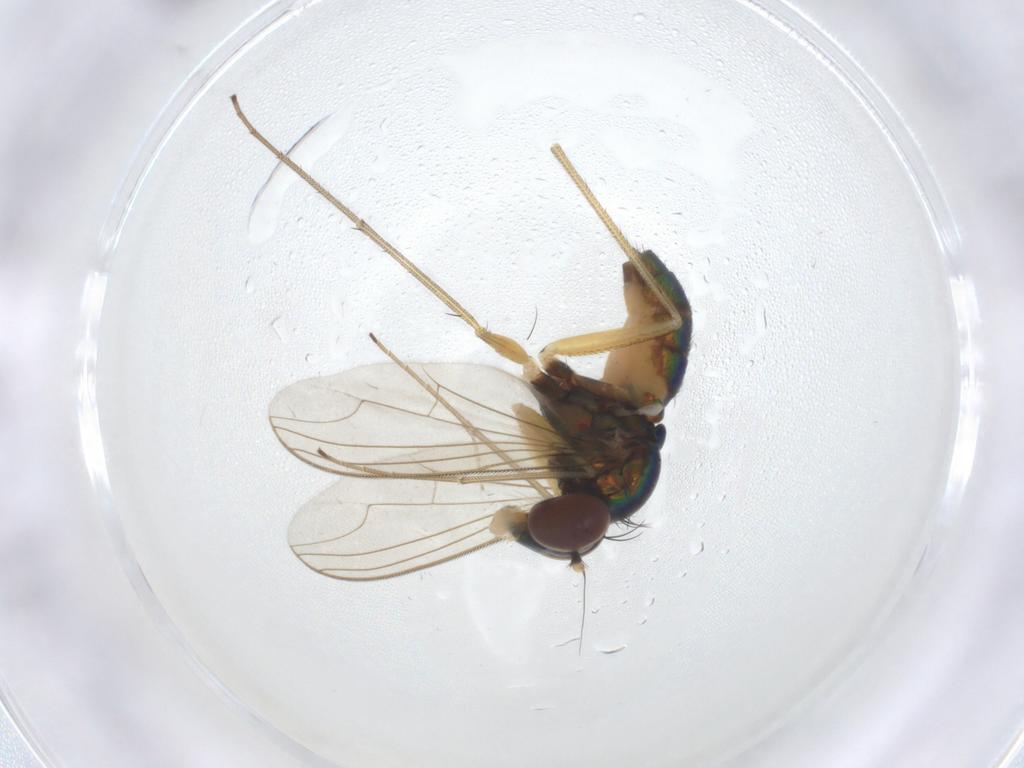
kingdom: Animalia
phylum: Arthropoda
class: Insecta
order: Diptera
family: Dolichopodidae
